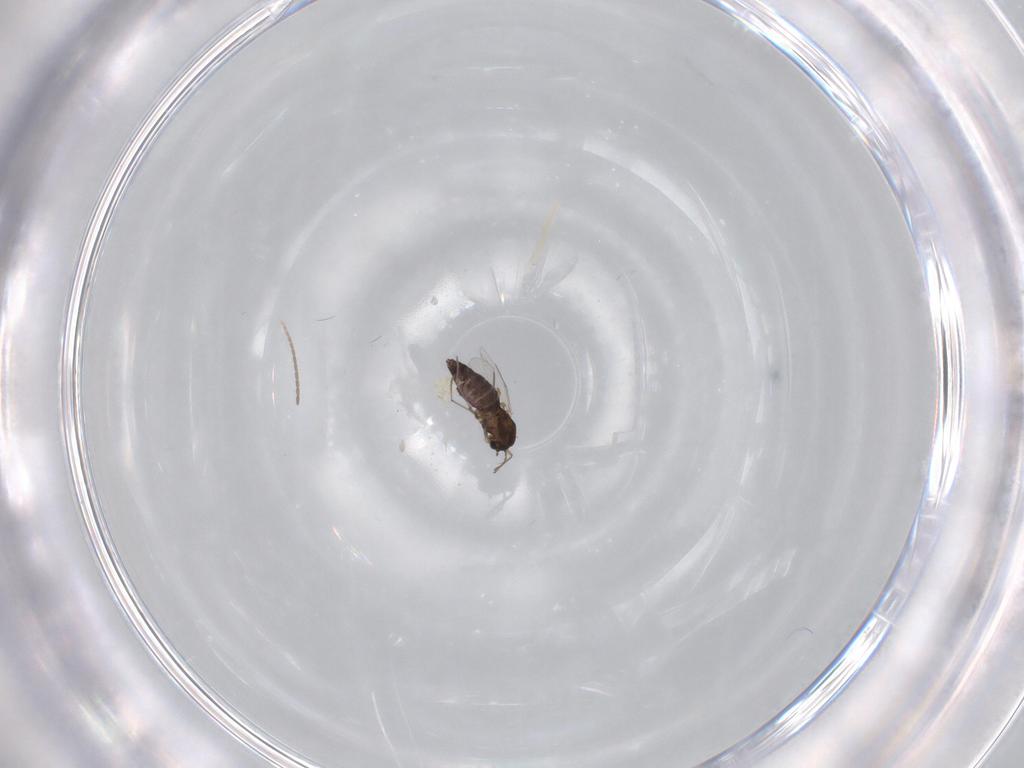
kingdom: Animalia
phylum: Arthropoda
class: Insecta
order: Diptera
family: Chironomidae
